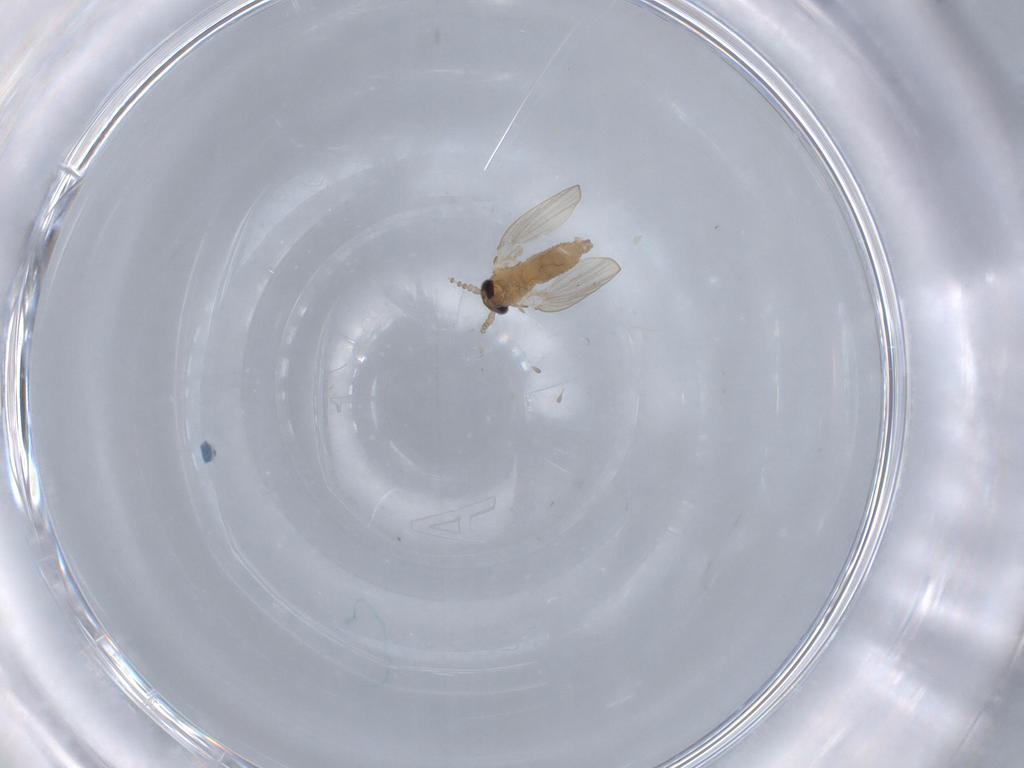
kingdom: Animalia
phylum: Arthropoda
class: Insecta
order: Diptera
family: Psychodidae
